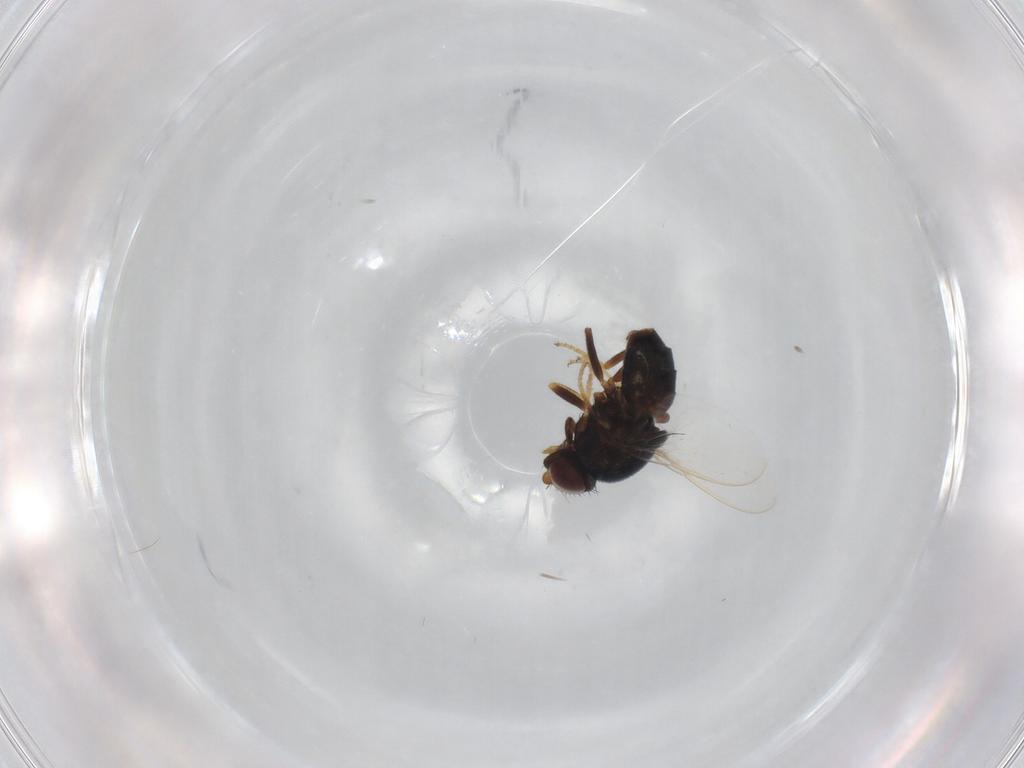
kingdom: Animalia
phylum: Arthropoda
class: Insecta
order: Diptera
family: Chloropidae
